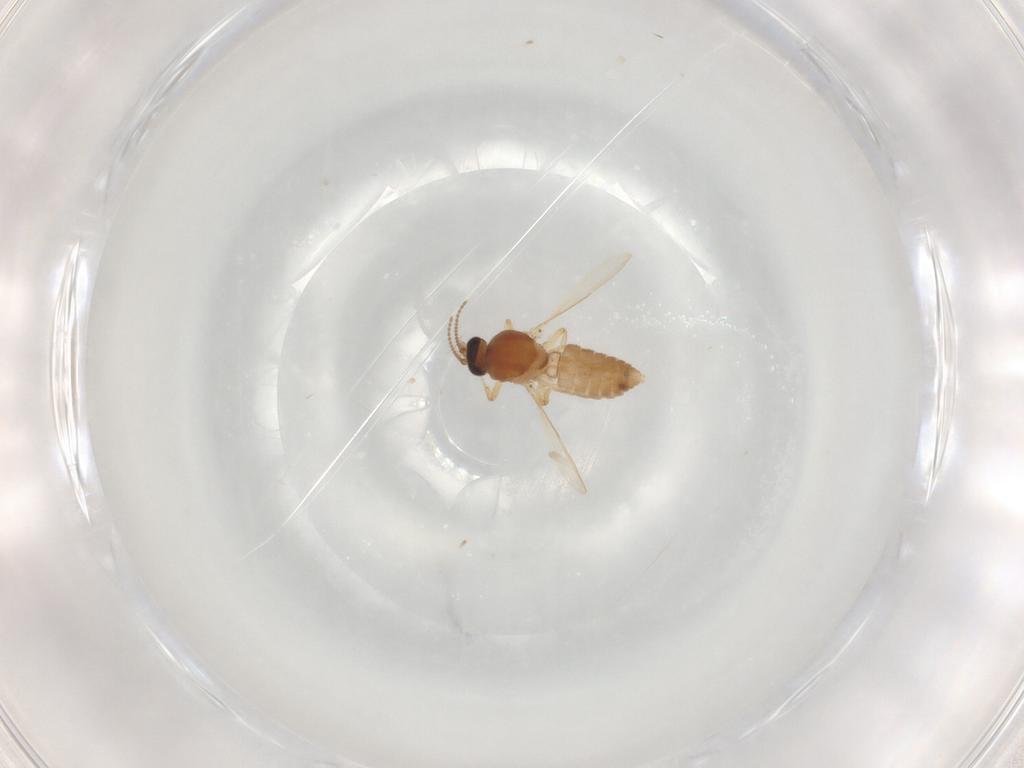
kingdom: Animalia
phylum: Arthropoda
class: Insecta
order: Diptera
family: Ceratopogonidae
